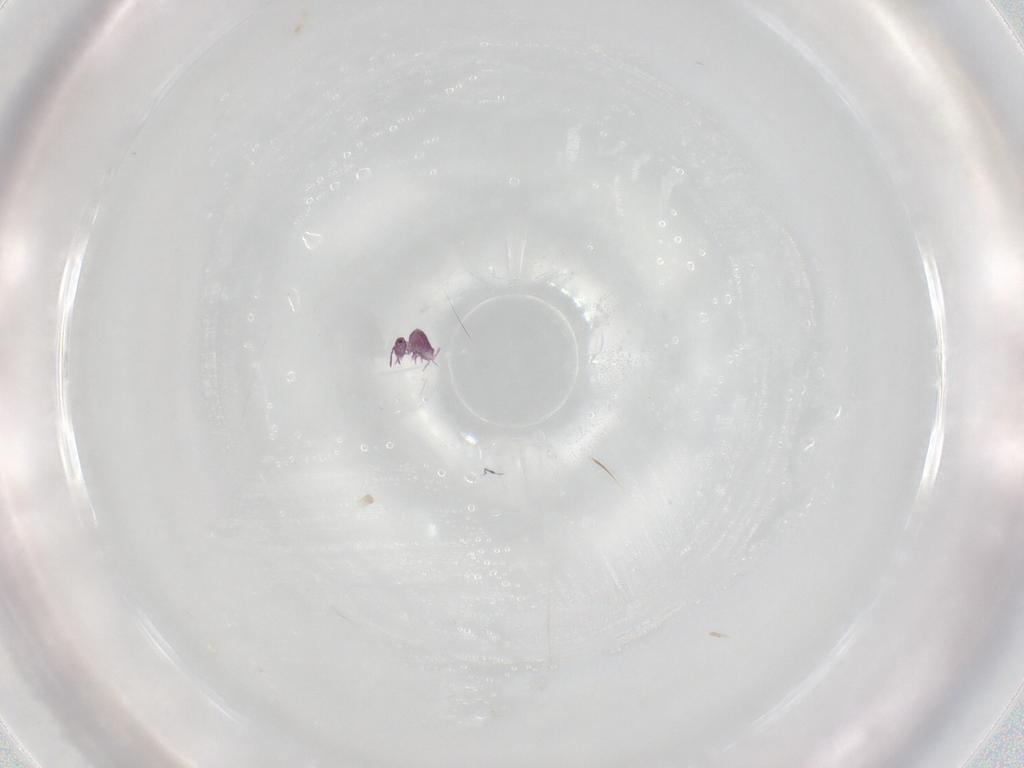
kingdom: Animalia
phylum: Arthropoda
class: Collembola
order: Symphypleona
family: Sminthurididae
